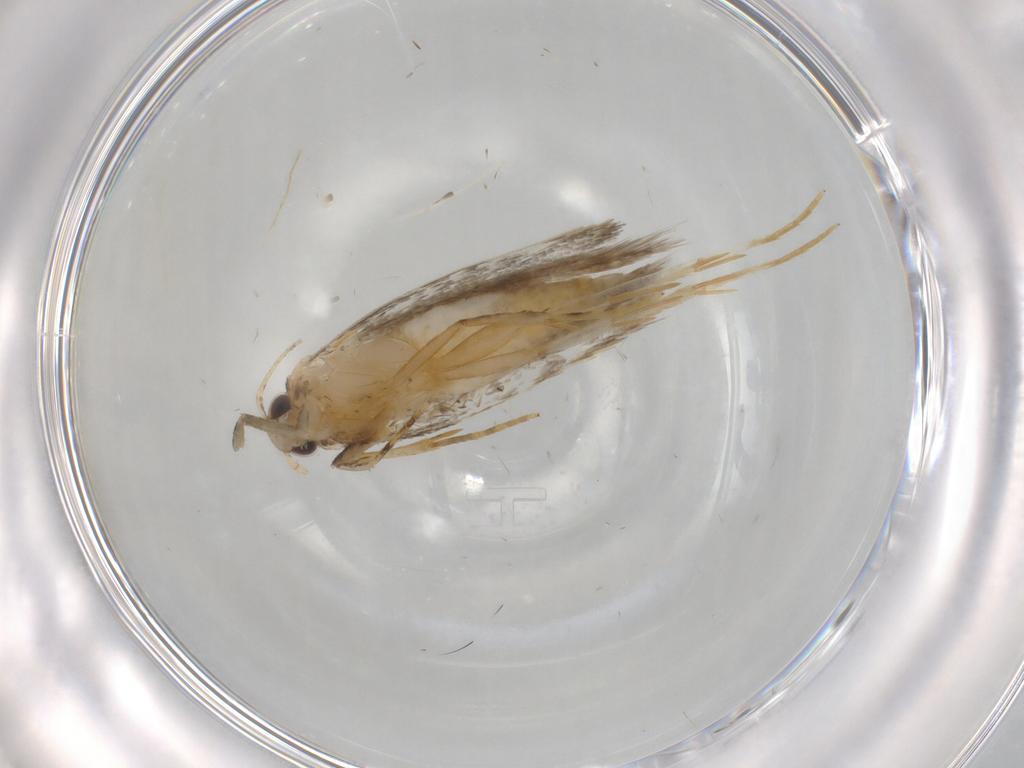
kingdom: Animalia
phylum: Arthropoda
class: Insecta
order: Lepidoptera
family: Autostichidae
